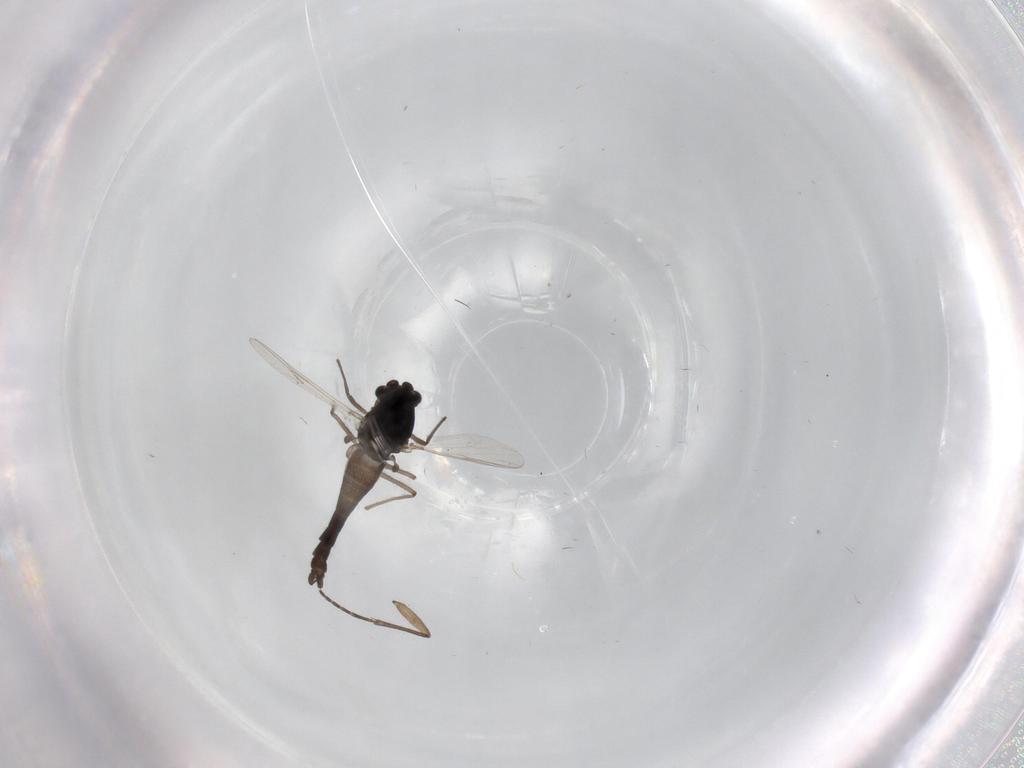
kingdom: Animalia
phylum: Arthropoda
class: Insecta
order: Diptera
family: Chironomidae
